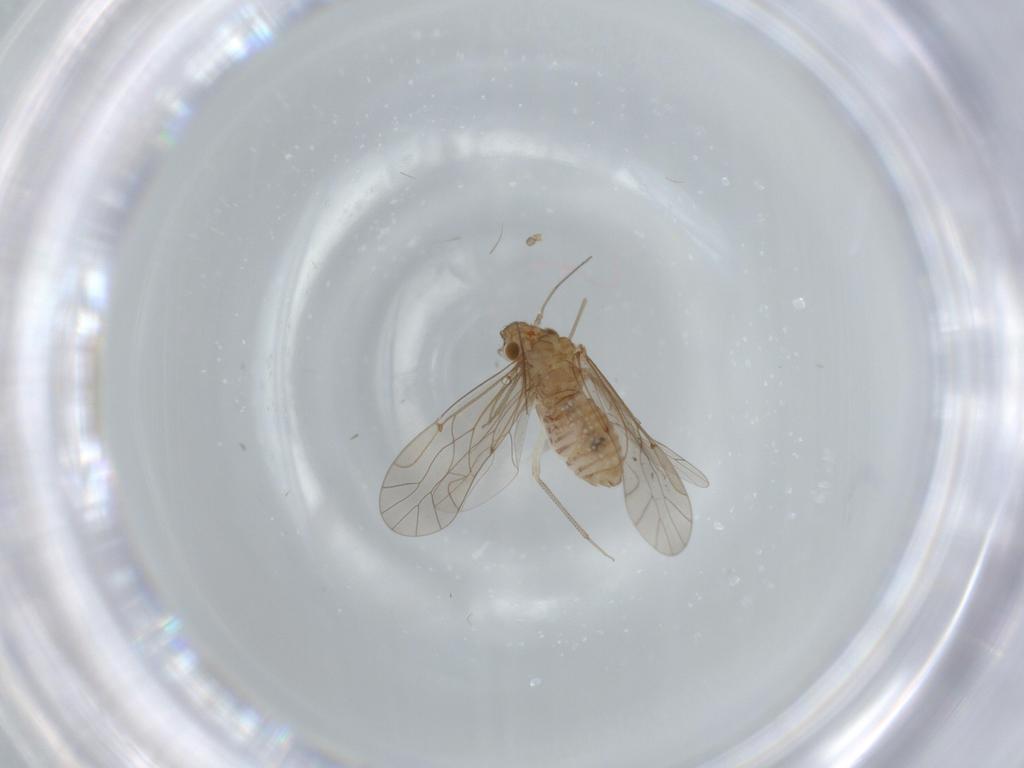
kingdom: Animalia
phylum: Arthropoda
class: Insecta
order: Psocodea
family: Lachesillidae
